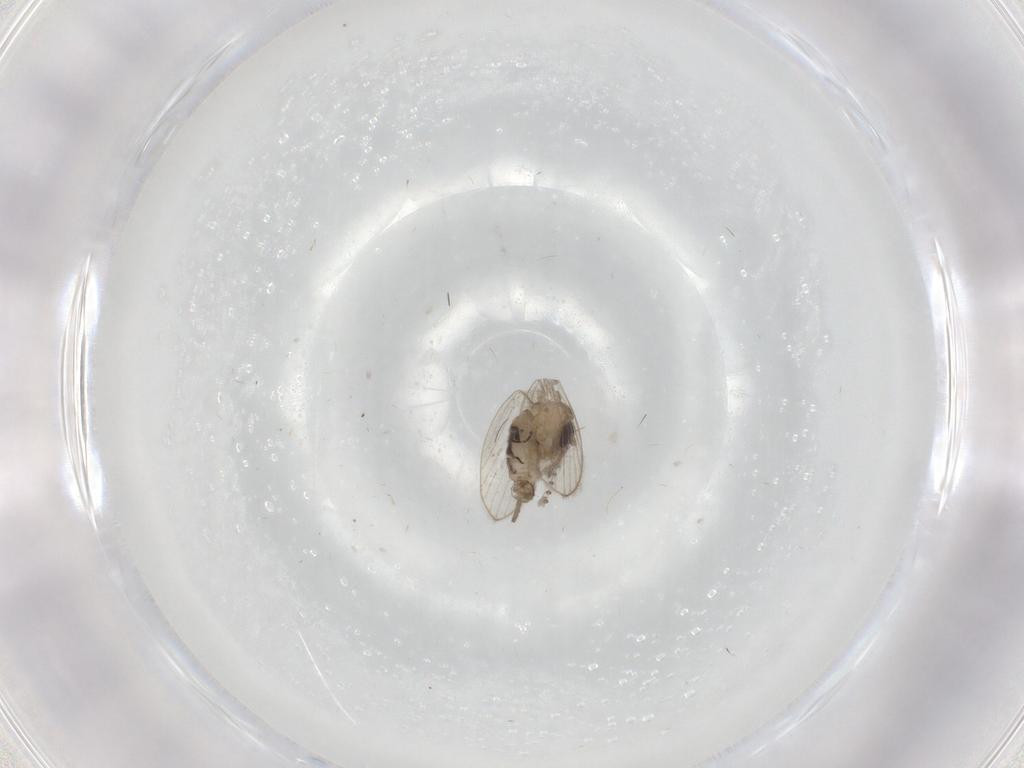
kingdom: Animalia
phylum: Arthropoda
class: Insecta
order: Diptera
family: Psychodidae
